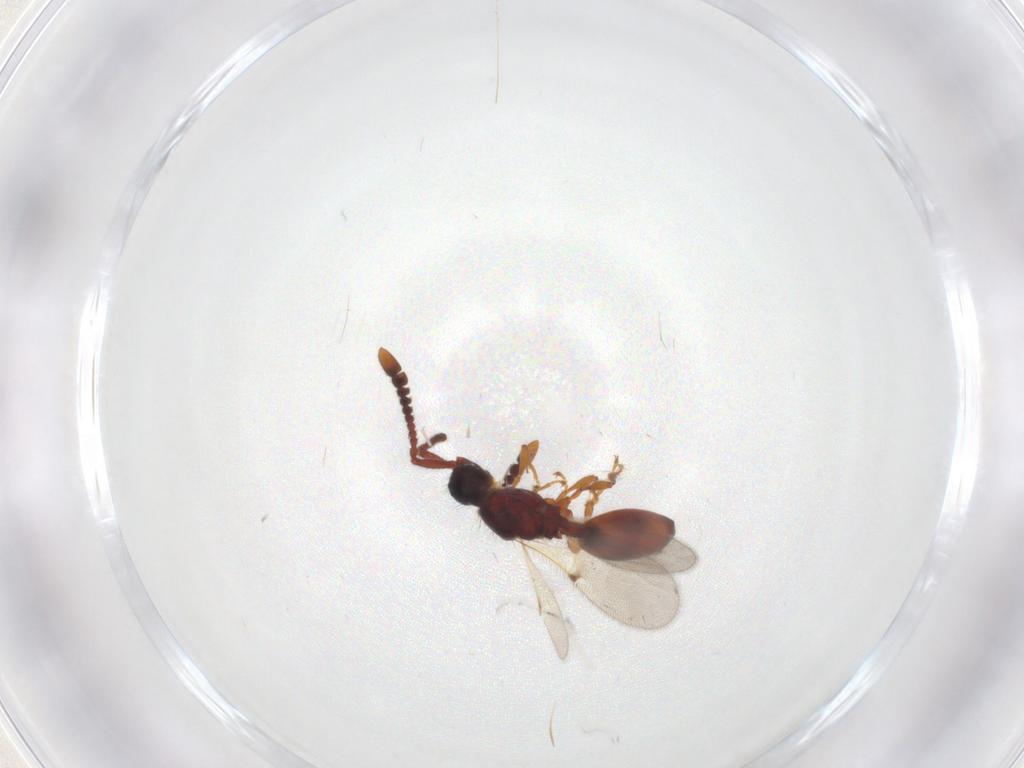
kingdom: Animalia
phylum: Arthropoda
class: Insecta
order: Hymenoptera
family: Diapriidae
